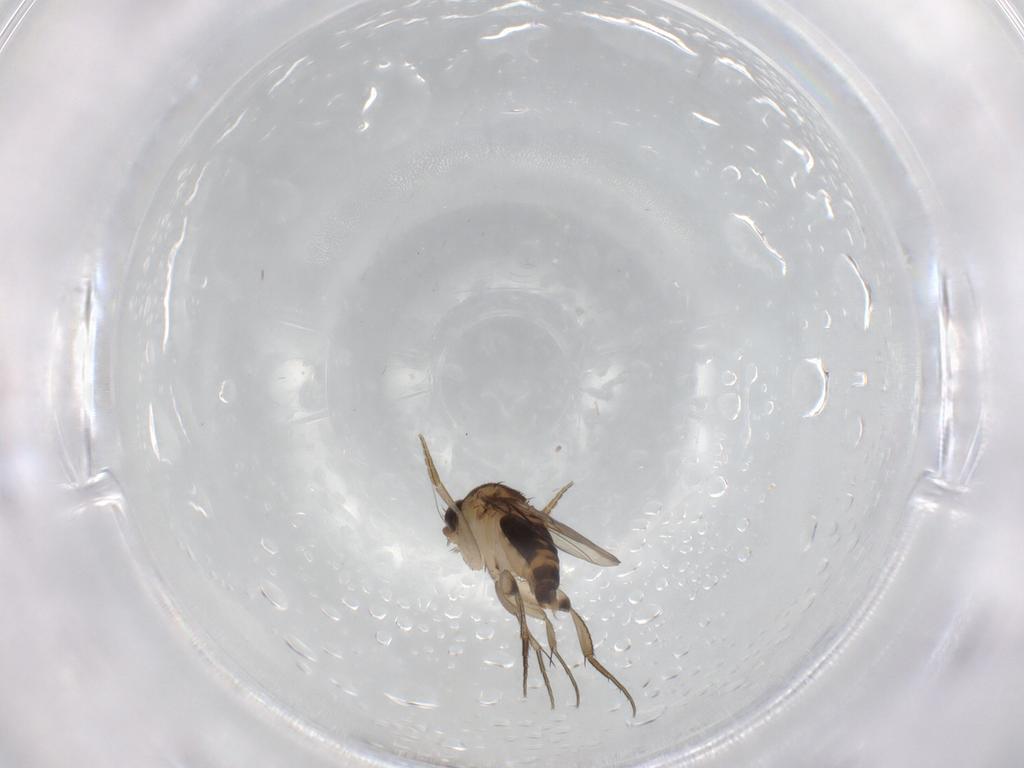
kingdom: Animalia
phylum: Arthropoda
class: Insecta
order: Diptera
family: Phoridae
